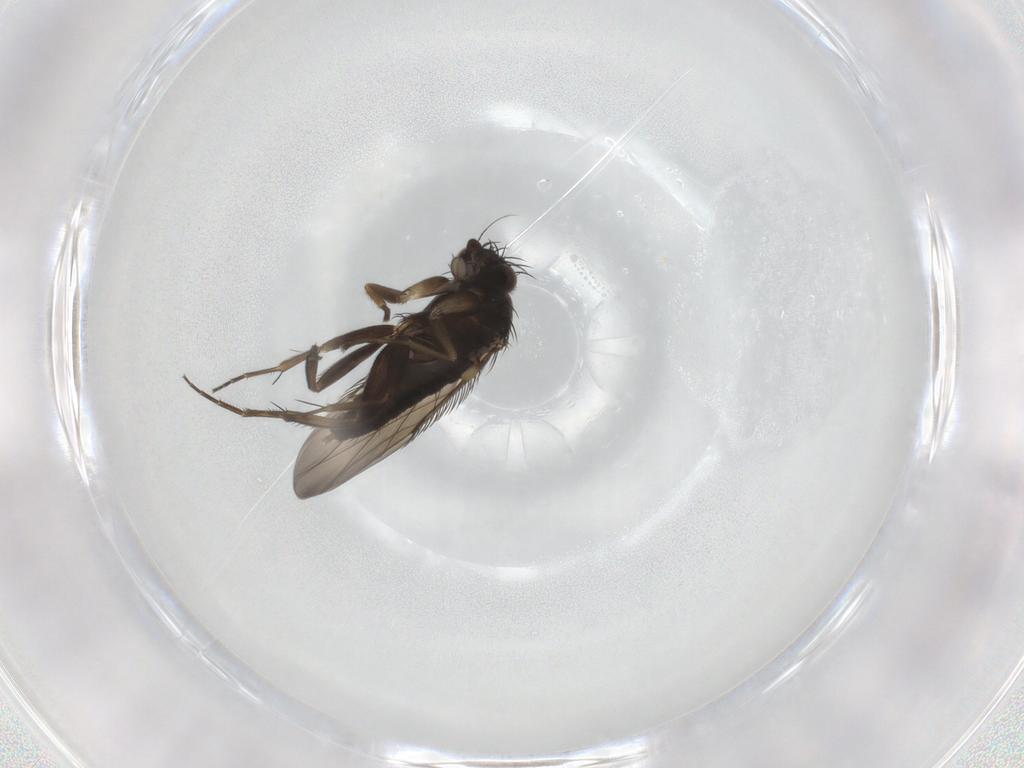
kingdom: Animalia
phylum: Arthropoda
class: Insecta
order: Diptera
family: Phoridae
